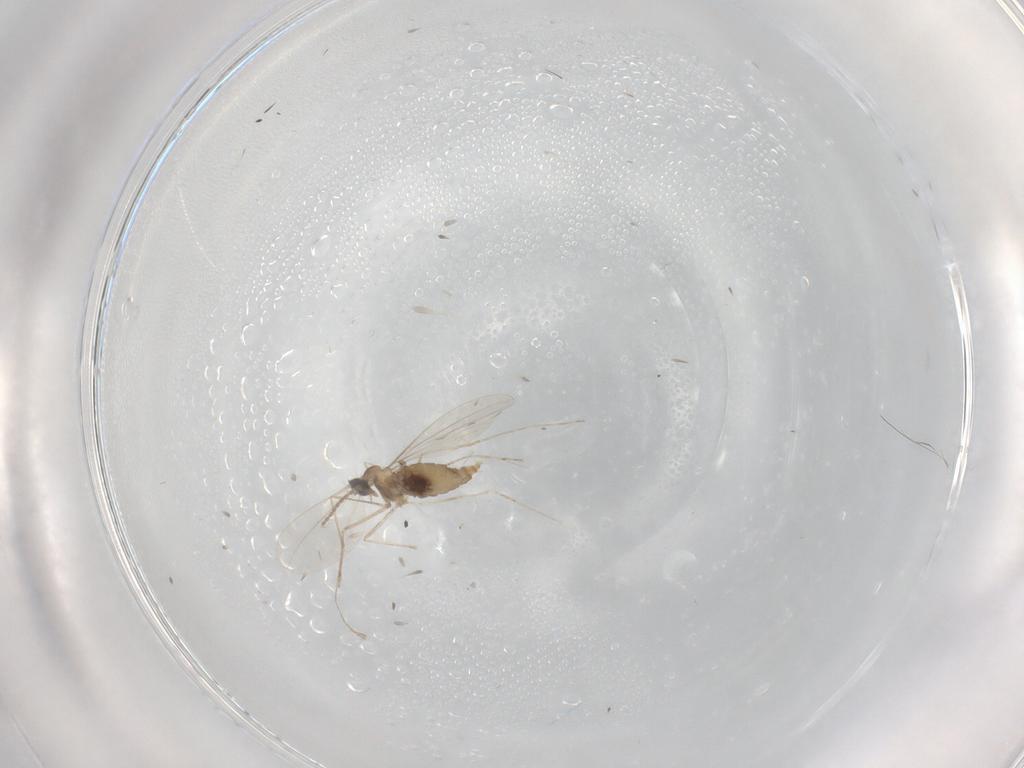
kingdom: Animalia
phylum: Arthropoda
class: Insecta
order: Diptera
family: Cecidomyiidae
